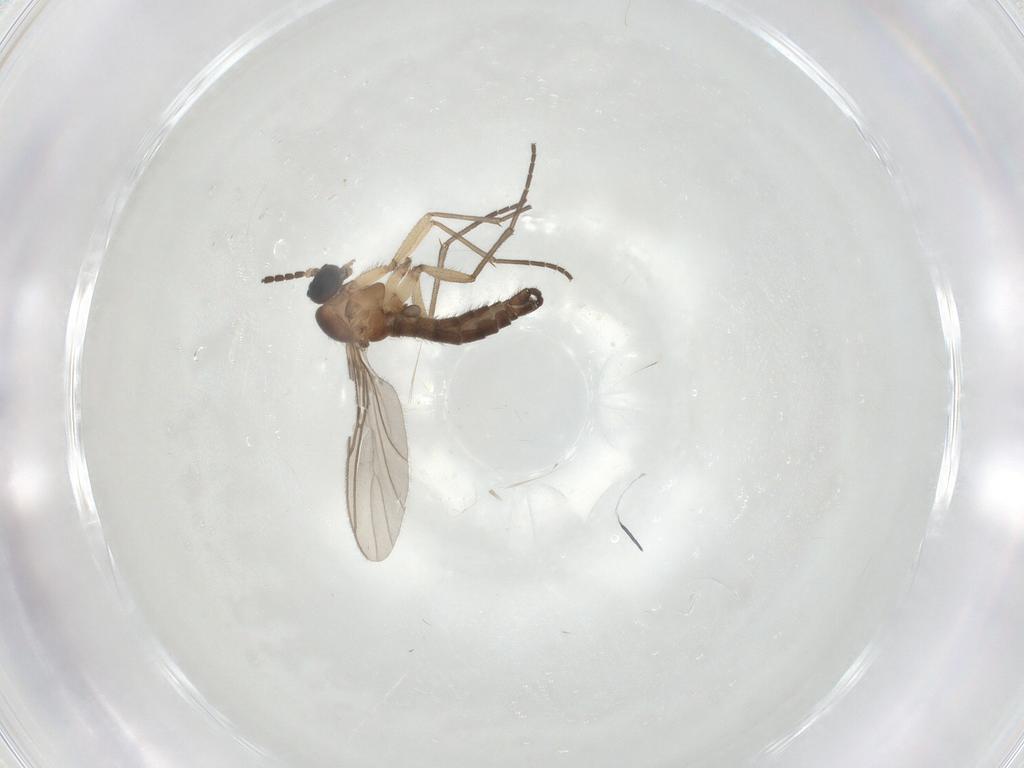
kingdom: Animalia
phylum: Arthropoda
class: Insecta
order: Diptera
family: Sciaridae
